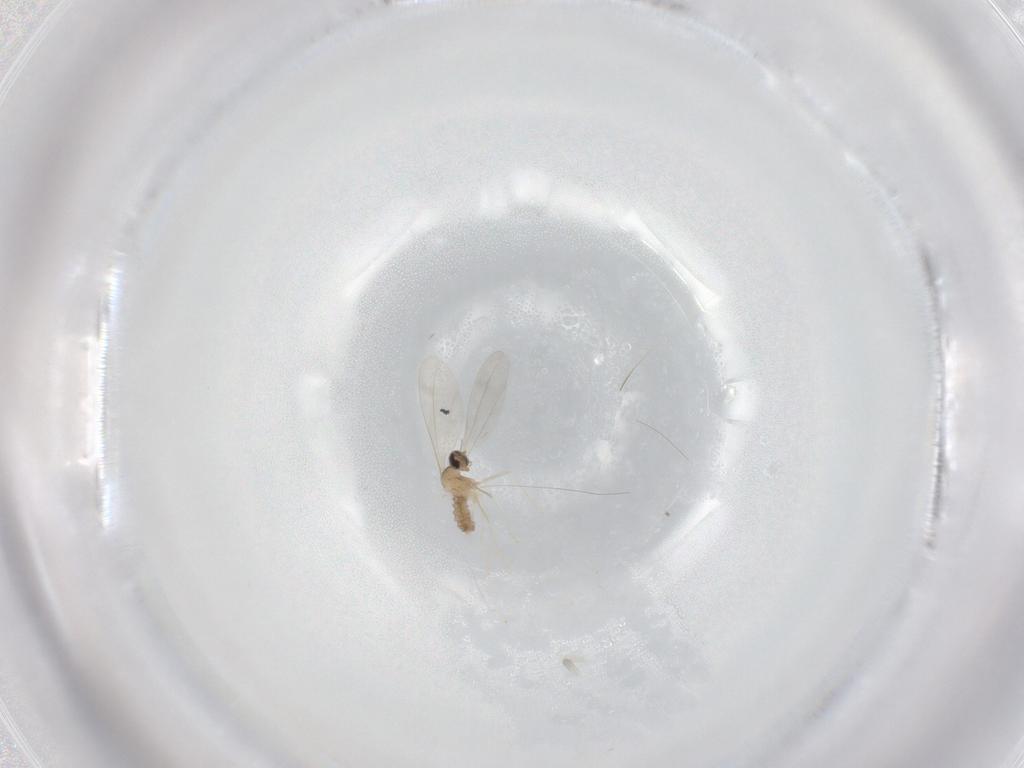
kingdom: Animalia
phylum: Arthropoda
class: Insecta
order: Diptera
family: Cecidomyiidae
